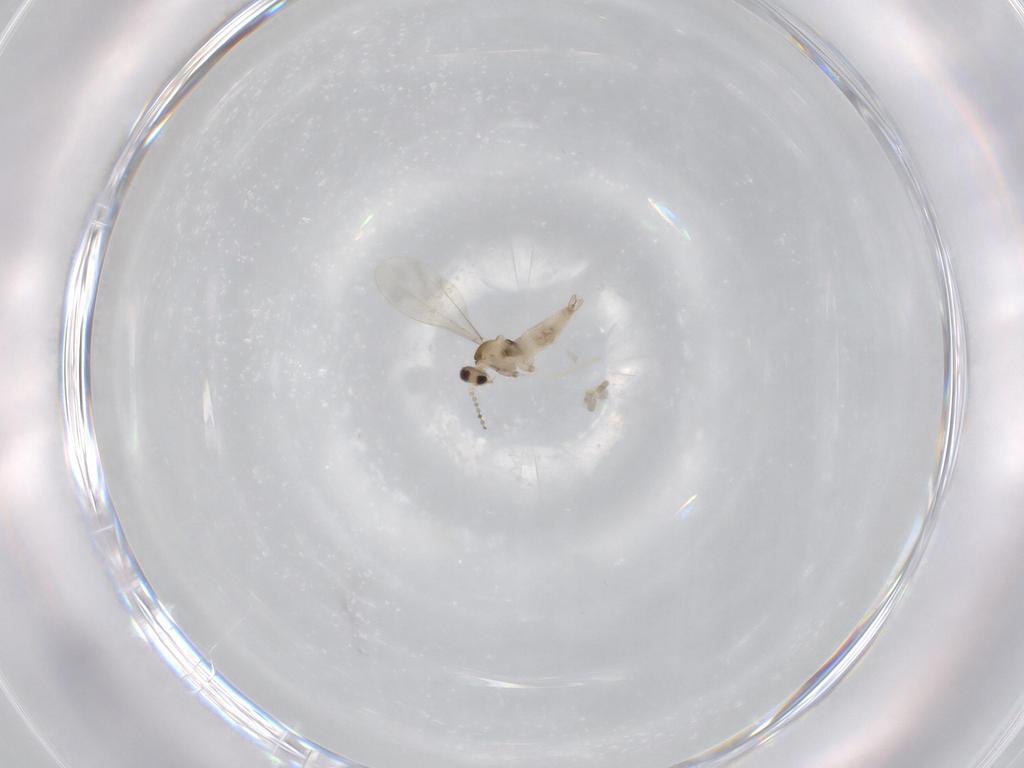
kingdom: Animalia
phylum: Arthropoda
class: Insecta
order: Diptera
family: Cecidomyiidae
